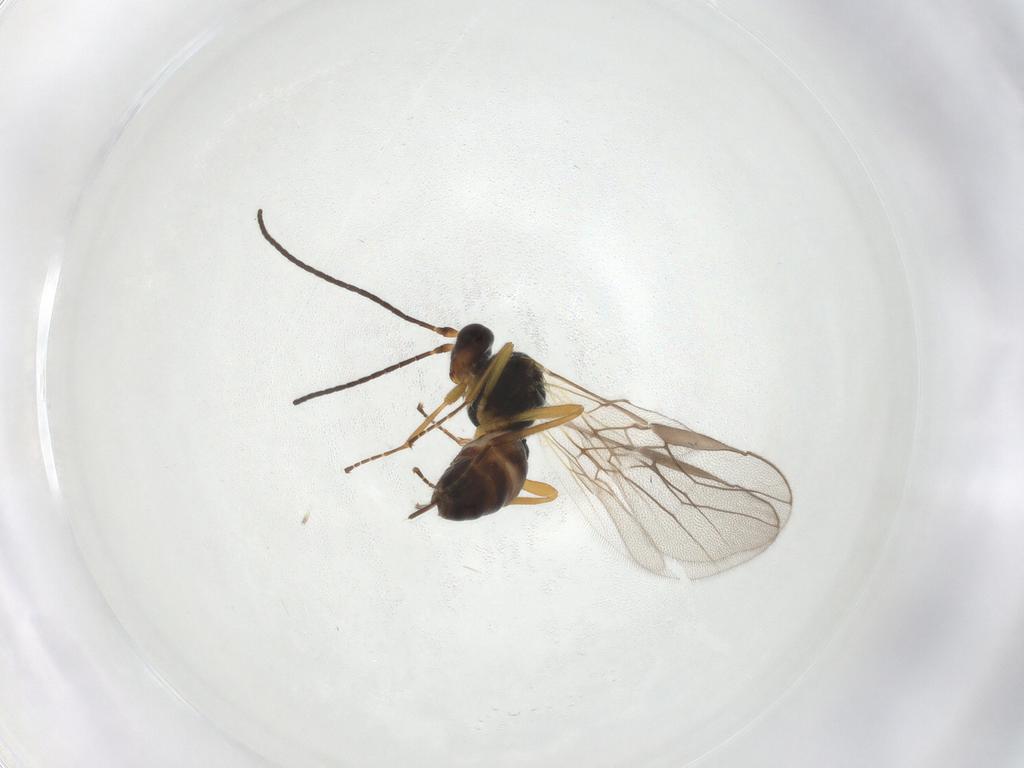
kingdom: Animalia
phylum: Arthropoda
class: Insecta
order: Hymenoptera
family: Braconidae
